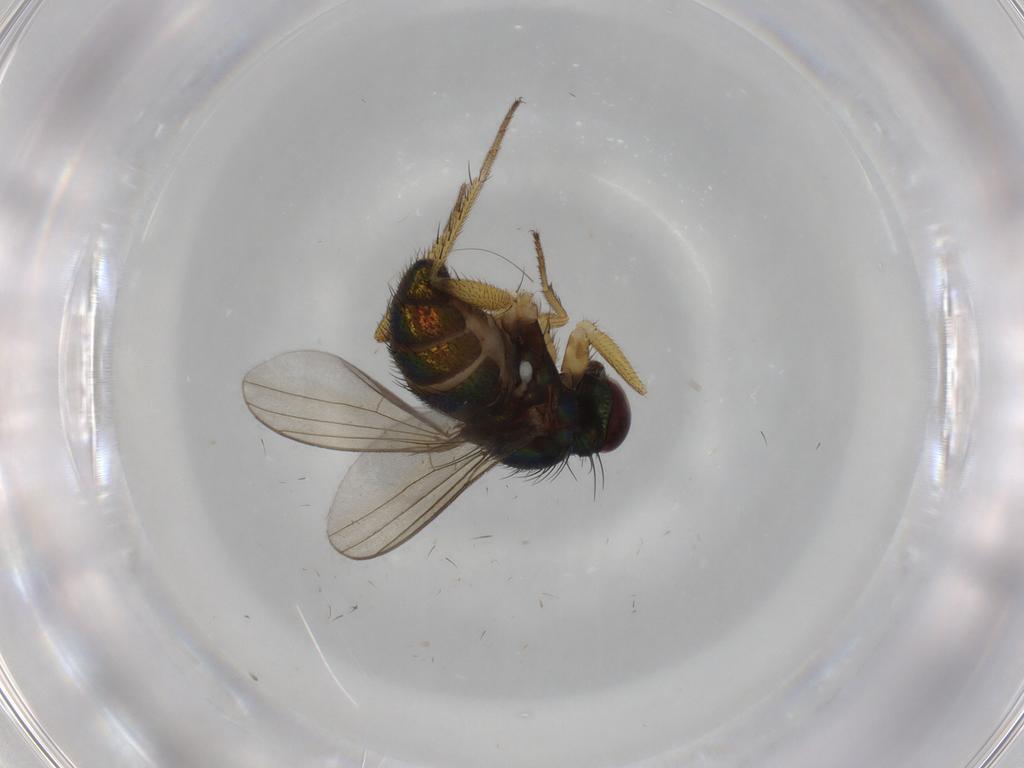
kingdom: Animalia
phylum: Arthropoda
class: Insecta
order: Diptera
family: Dolichopodidae
